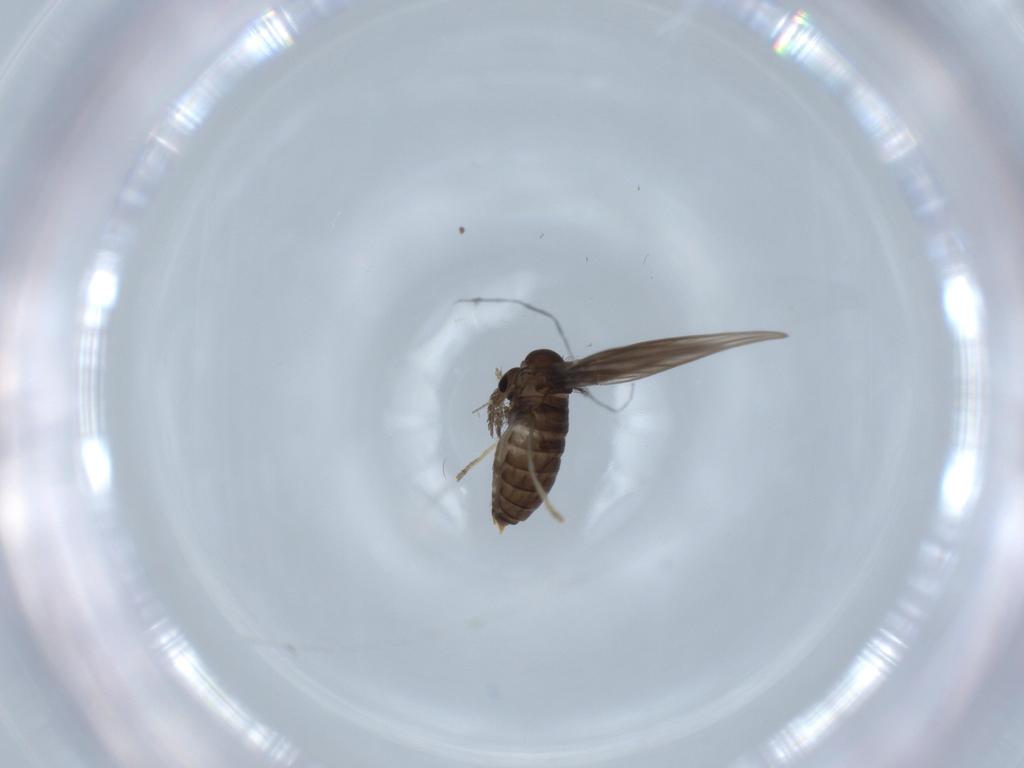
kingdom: Animalia
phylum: Arthropoda
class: Insecta
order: Diptera
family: Psychodidae
